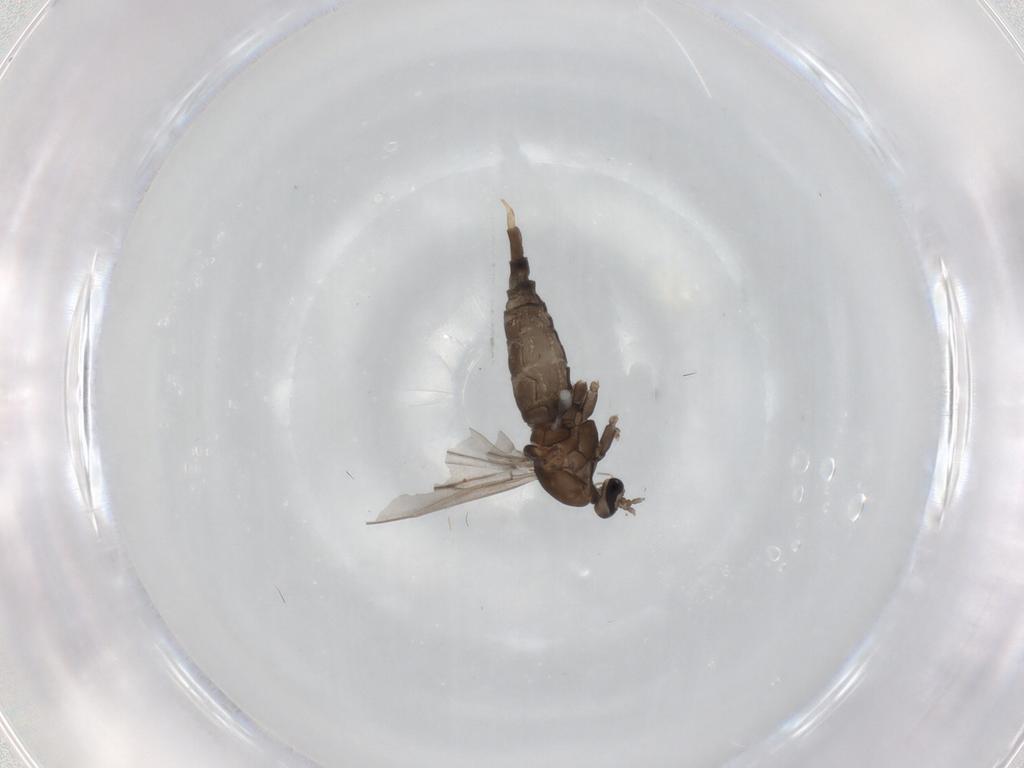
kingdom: Animalia
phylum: Arthropoda
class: Insecta
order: Diptera
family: Cecidomyiidae
